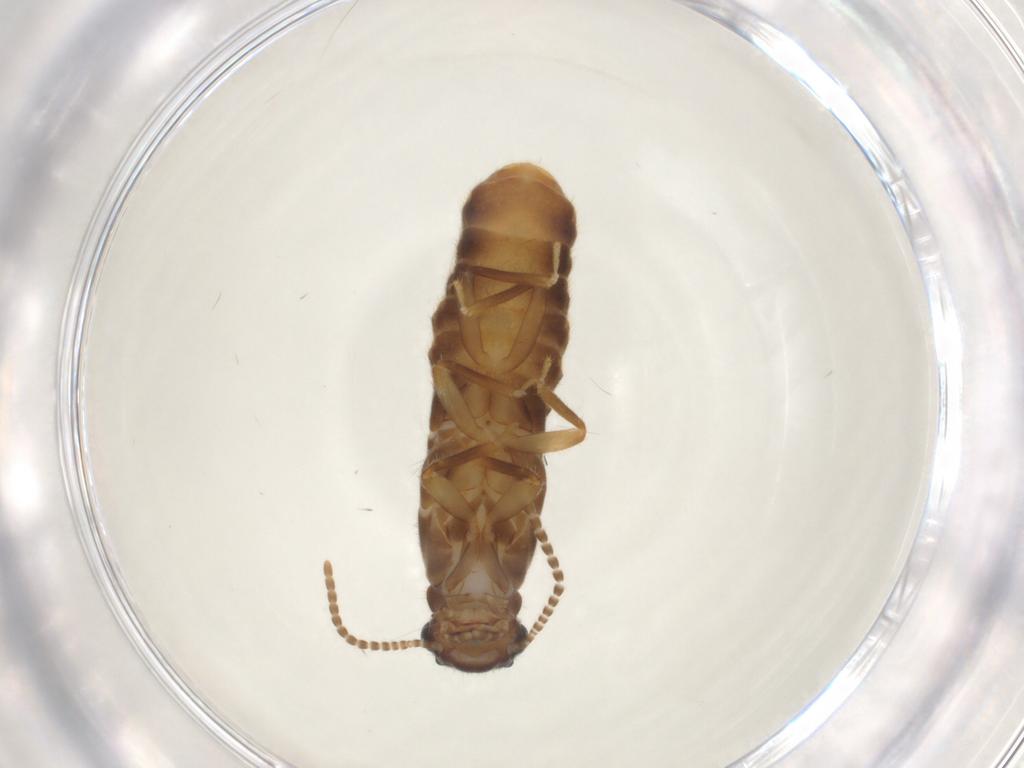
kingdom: Animalia
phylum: Arthropoda
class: Insecta
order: Blattodea
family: Termitidae
